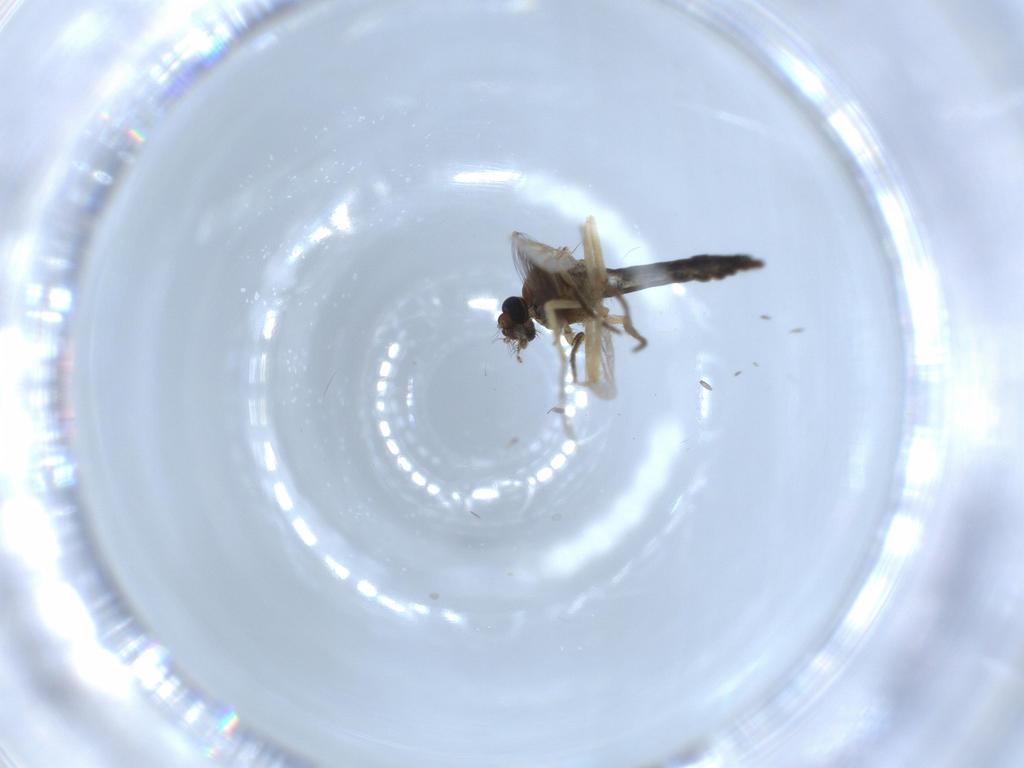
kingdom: Animalia
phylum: Arthropoda
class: Insecta
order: Diptera
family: Ceratopogonidae
